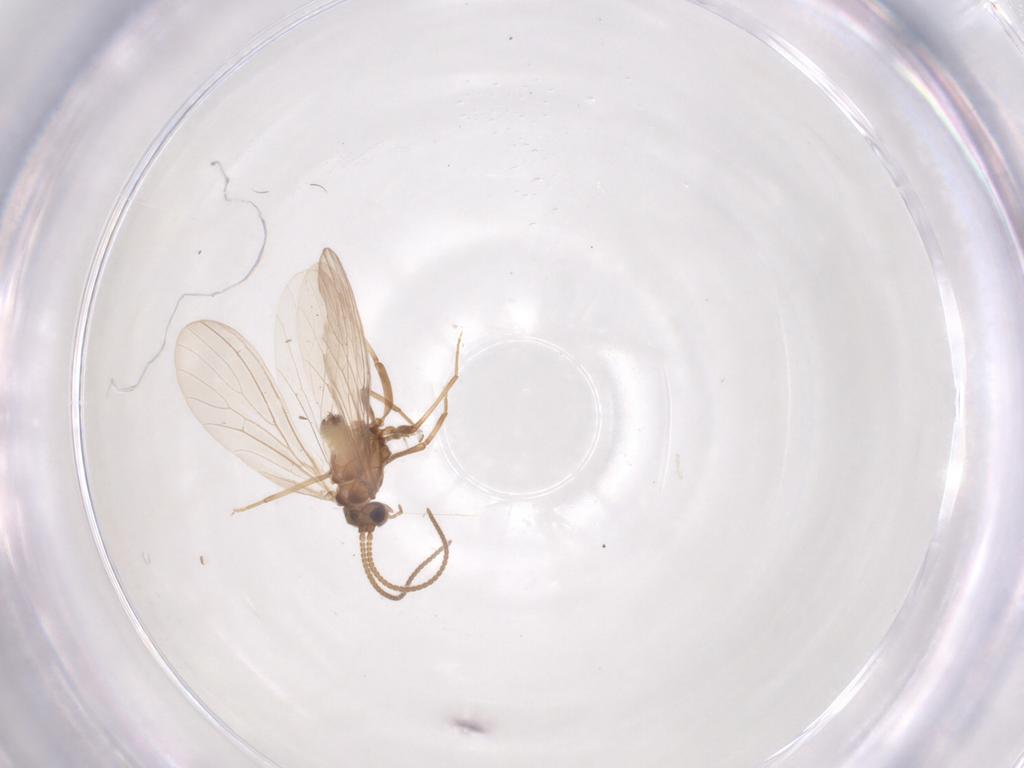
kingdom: Animalia
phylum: Arthropoda
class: Insecta
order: Neuroptera
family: Coniopterygidae
